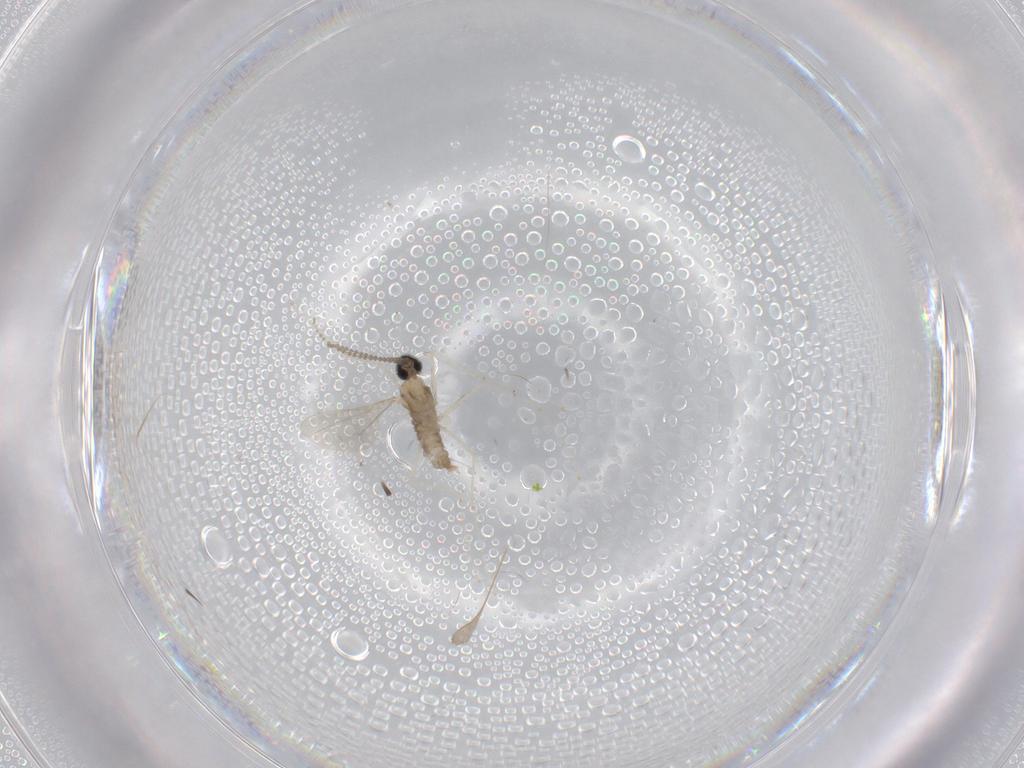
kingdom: Animalia
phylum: Arthropoda
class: Insecta
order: Diptera
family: Cecidomyiidae
